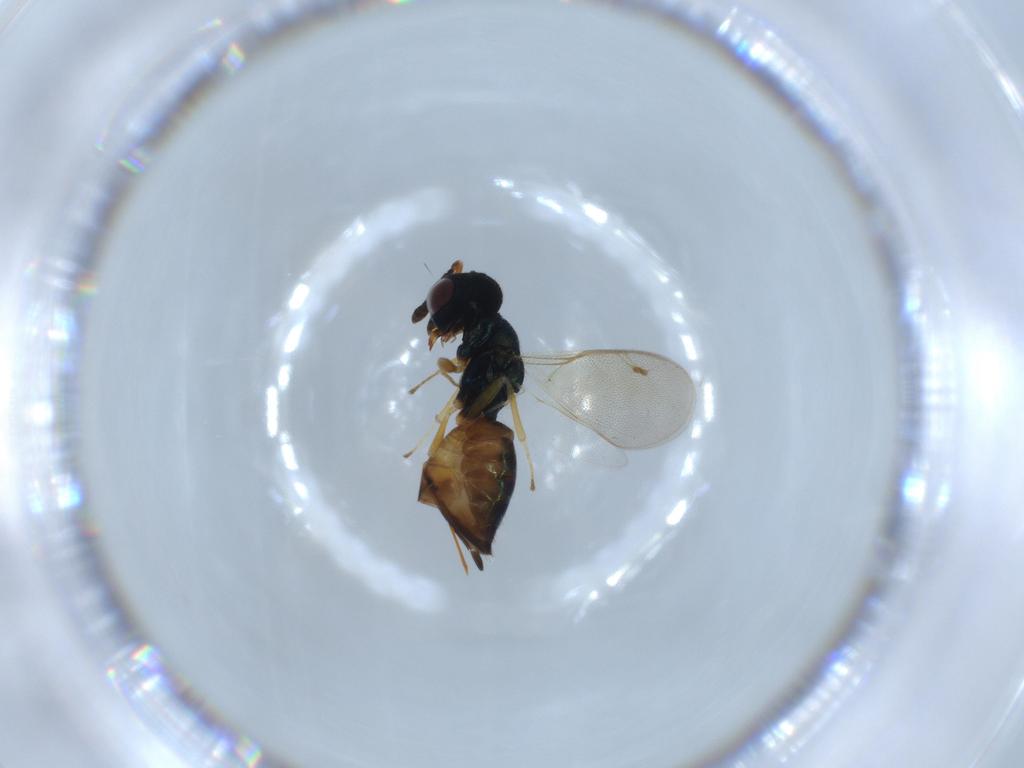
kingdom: Animalia
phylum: Arthropoda
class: Insecta
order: Hymenoptera
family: Pteromalidae
